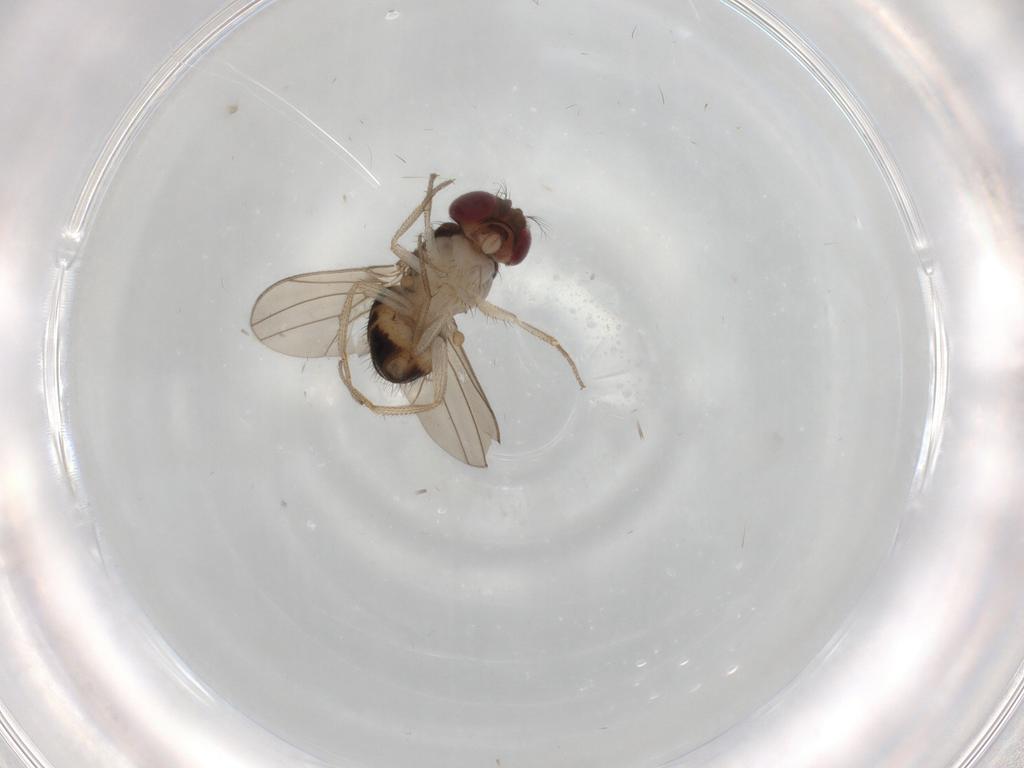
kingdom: Animalia
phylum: Arthropoda
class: Insecta
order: Diptera
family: Drosophilidae
